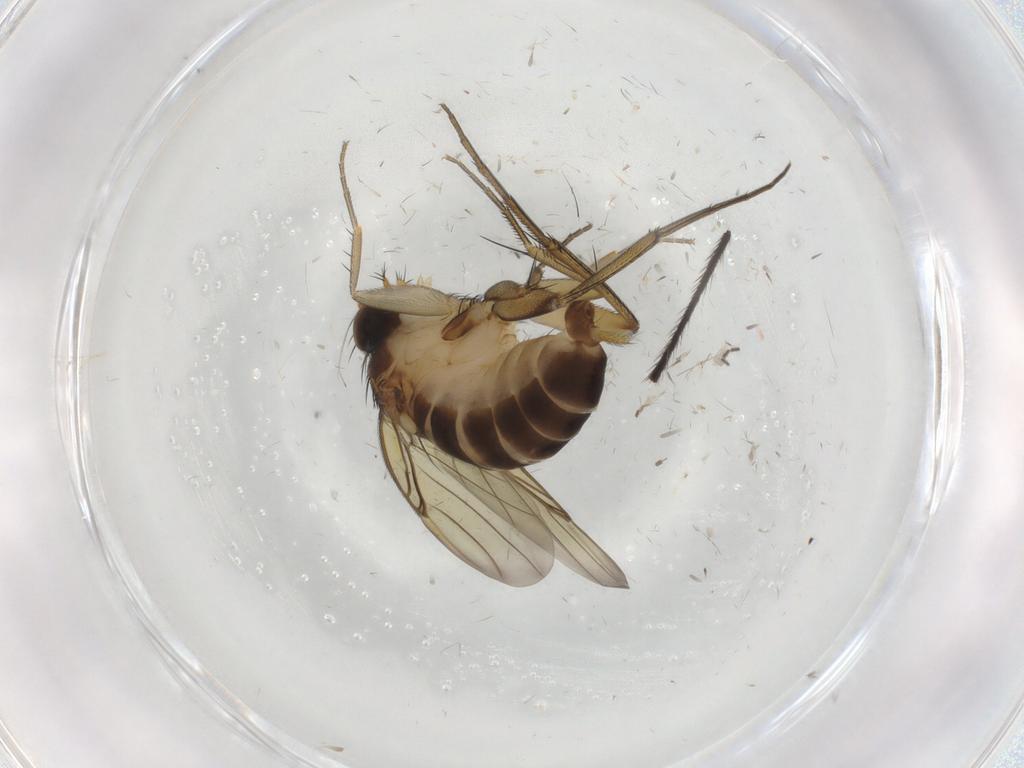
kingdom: Animalia
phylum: Arthropoda
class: Insecta
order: Diptera
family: Phoridae
